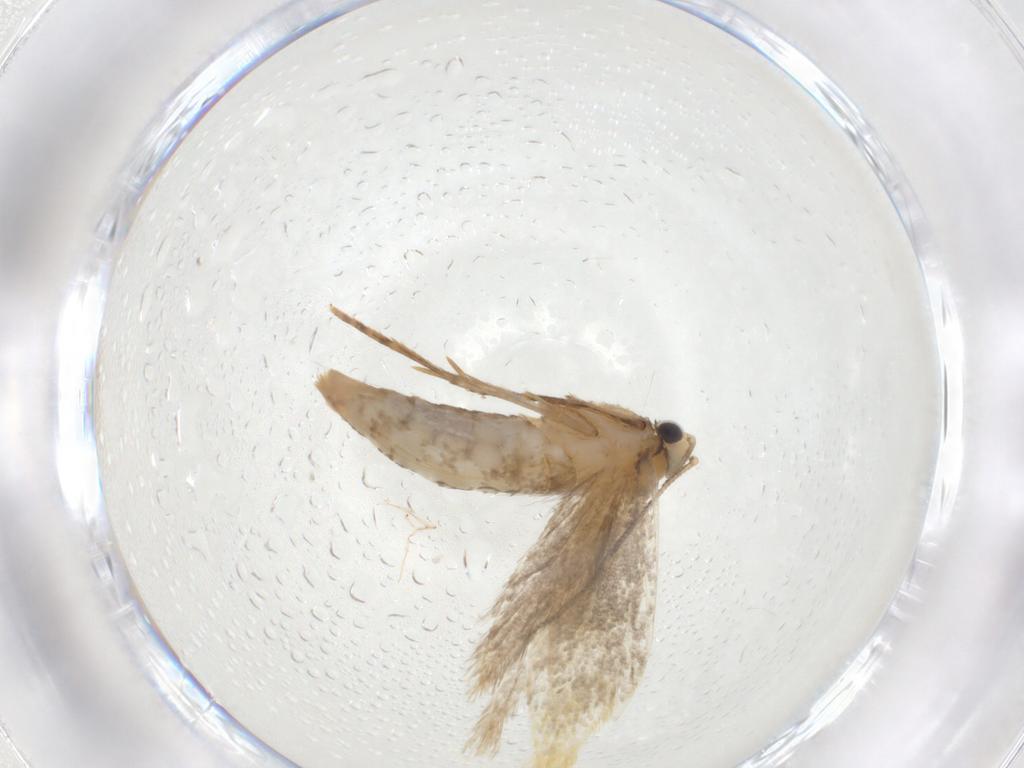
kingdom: Animalia
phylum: Arthropoda
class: Insecta
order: Lepidoptera
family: Tineidae
